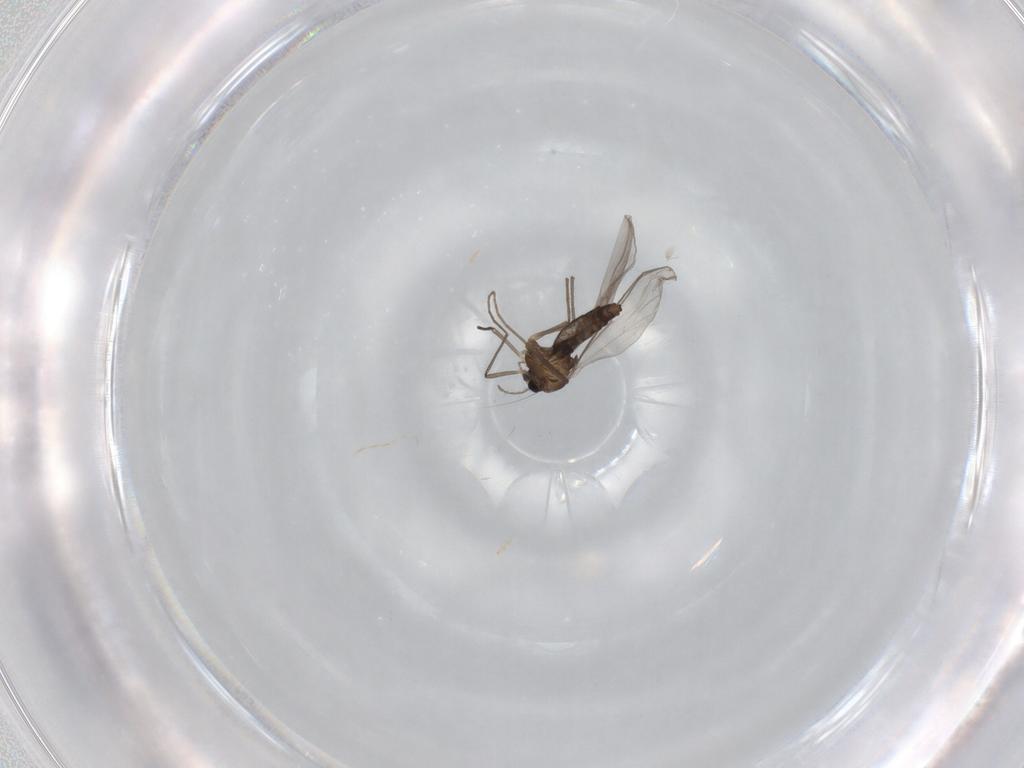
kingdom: Animalia
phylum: Arthropoda
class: Insecta
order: Diptera
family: Chironomidae
